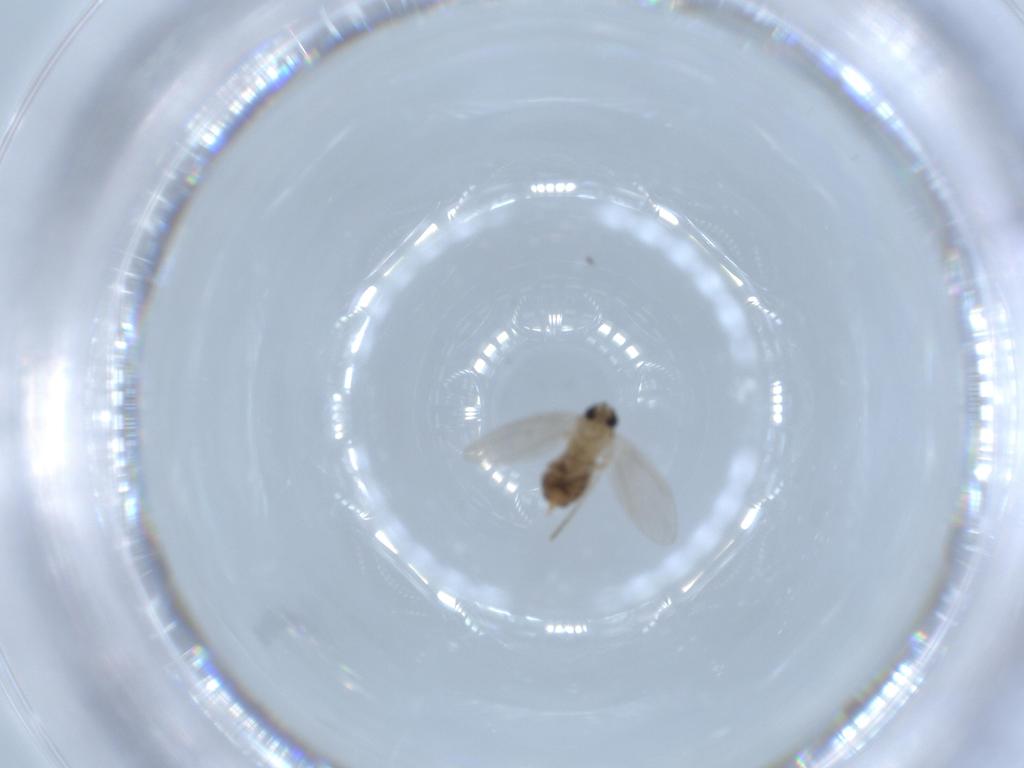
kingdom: Animalia
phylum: Arthropoda
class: Insecta
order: Diptera
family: Psychodidae
